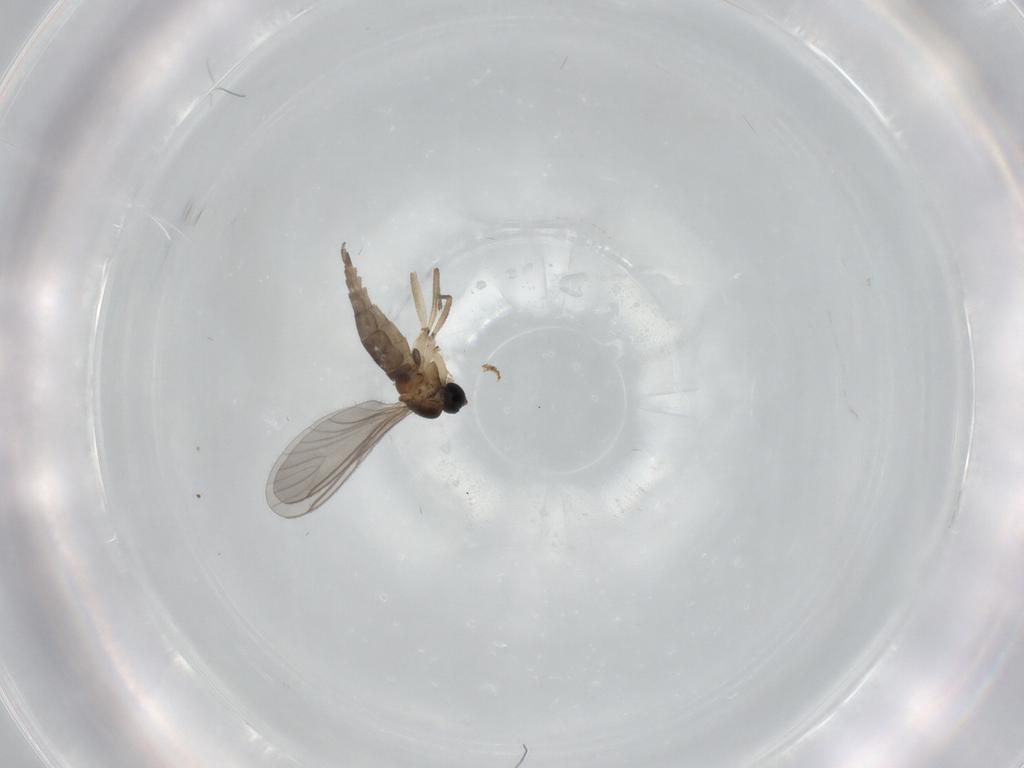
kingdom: Animalia
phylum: Arthropoda
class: Insecta
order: Diptera
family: Sciaridae
